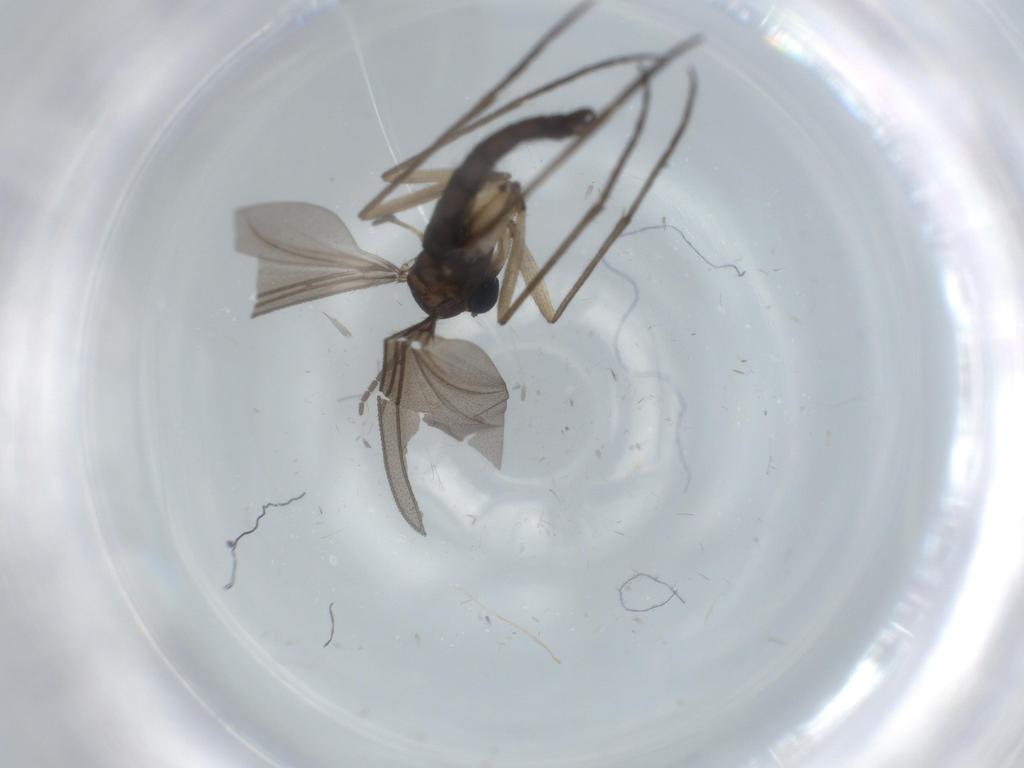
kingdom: Animalia
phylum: Arthropoda
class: Insecta
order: Diptera
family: Sciaridae
